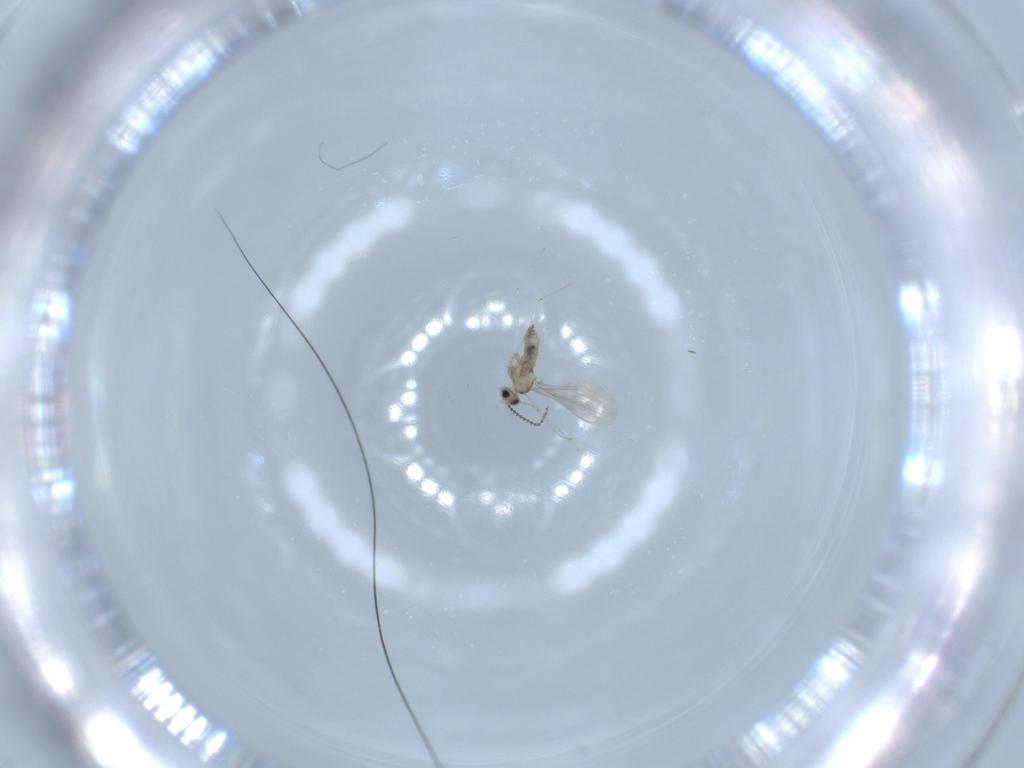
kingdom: Animalia
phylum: Arthropoda
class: Insecta
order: Diptera
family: Cecidomyiidae
